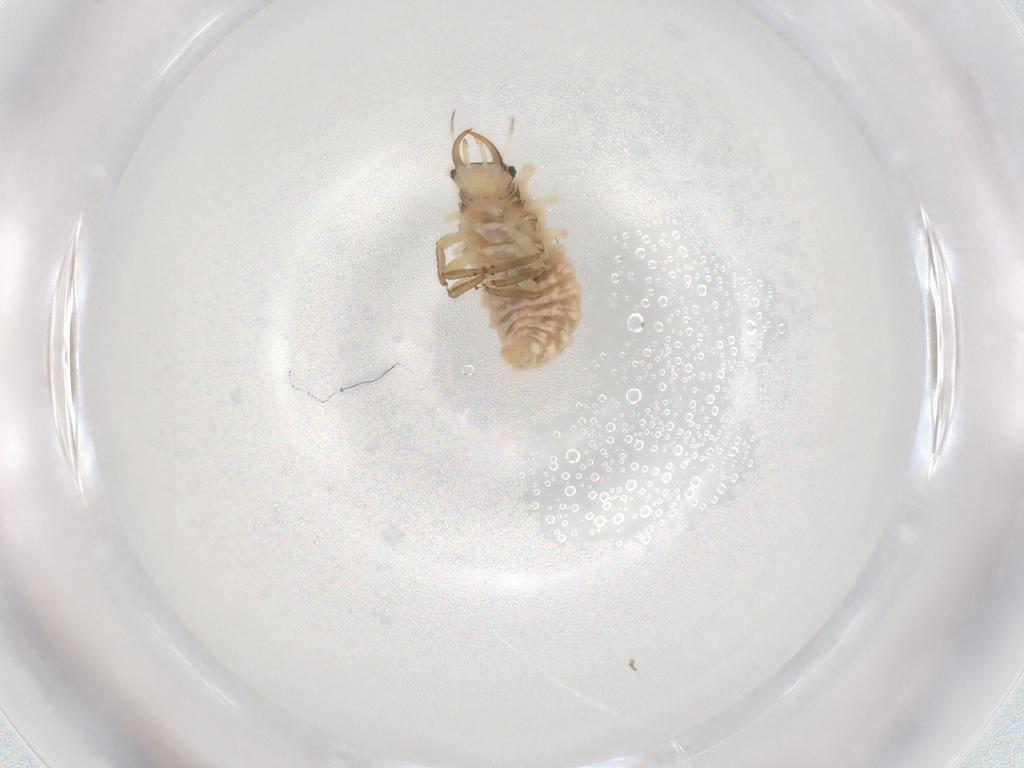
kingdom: Animalia
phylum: Arthropoda
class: Insecta
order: Neuroptera
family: Chrysopidae
